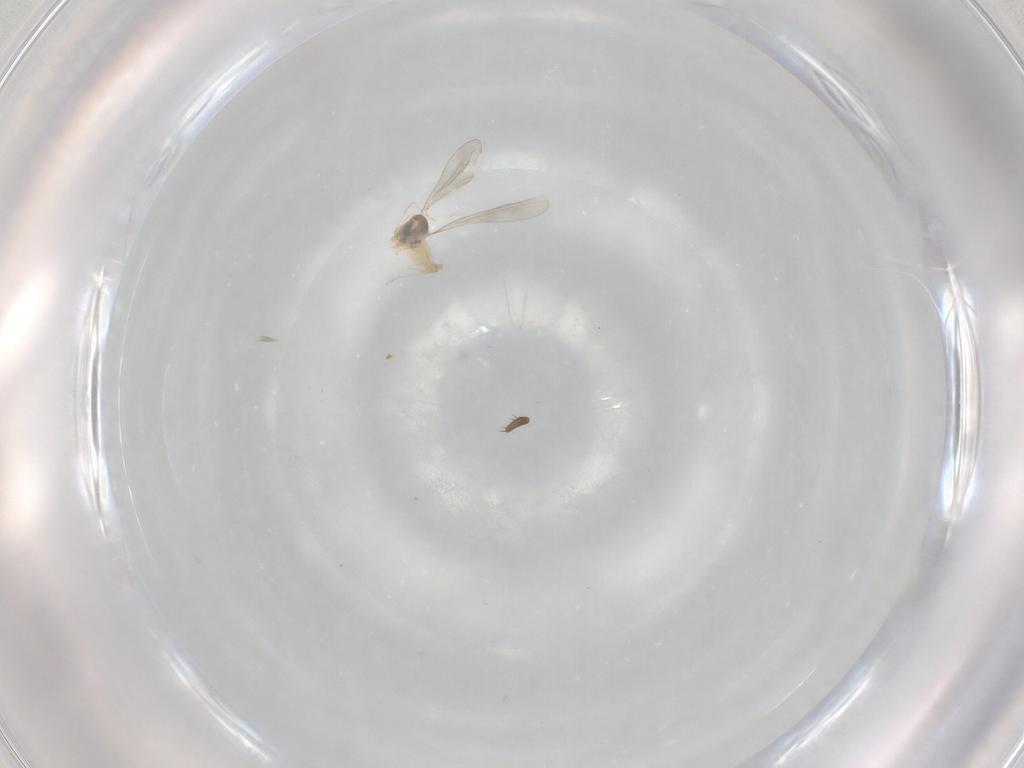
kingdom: Animalia
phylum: Arthropoda
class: Insecta
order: Diptera
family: Cecidomyiidae
